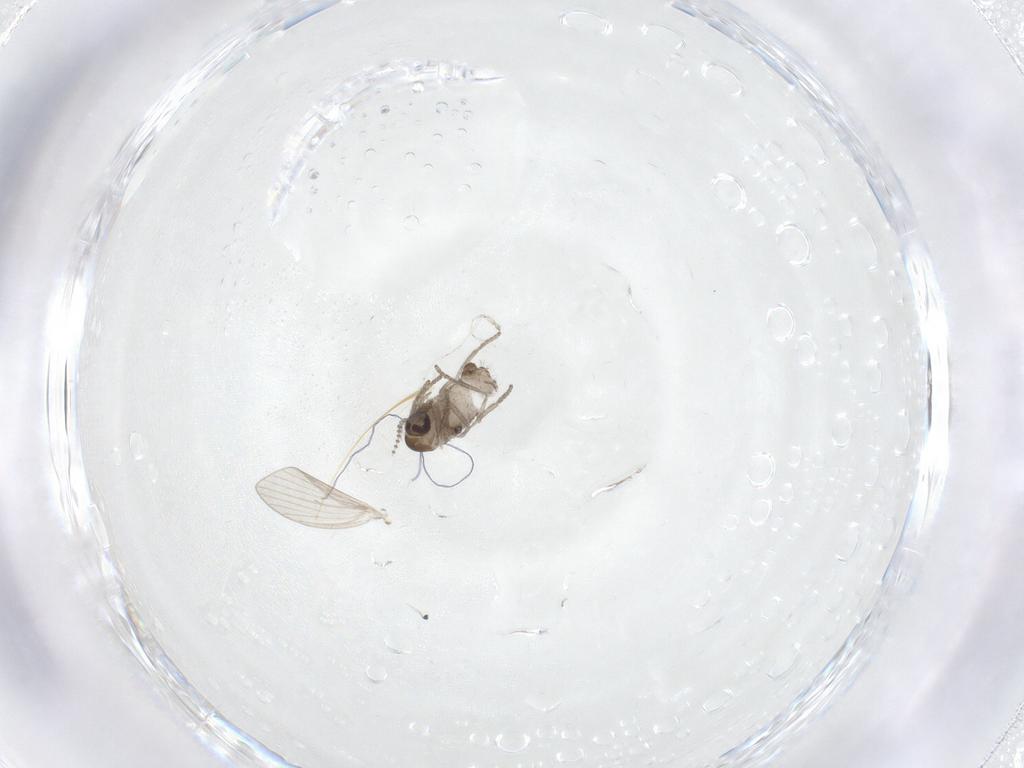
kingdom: Animalia
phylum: Arthropoda
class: Insecta
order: Diptera
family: Psychodidae
